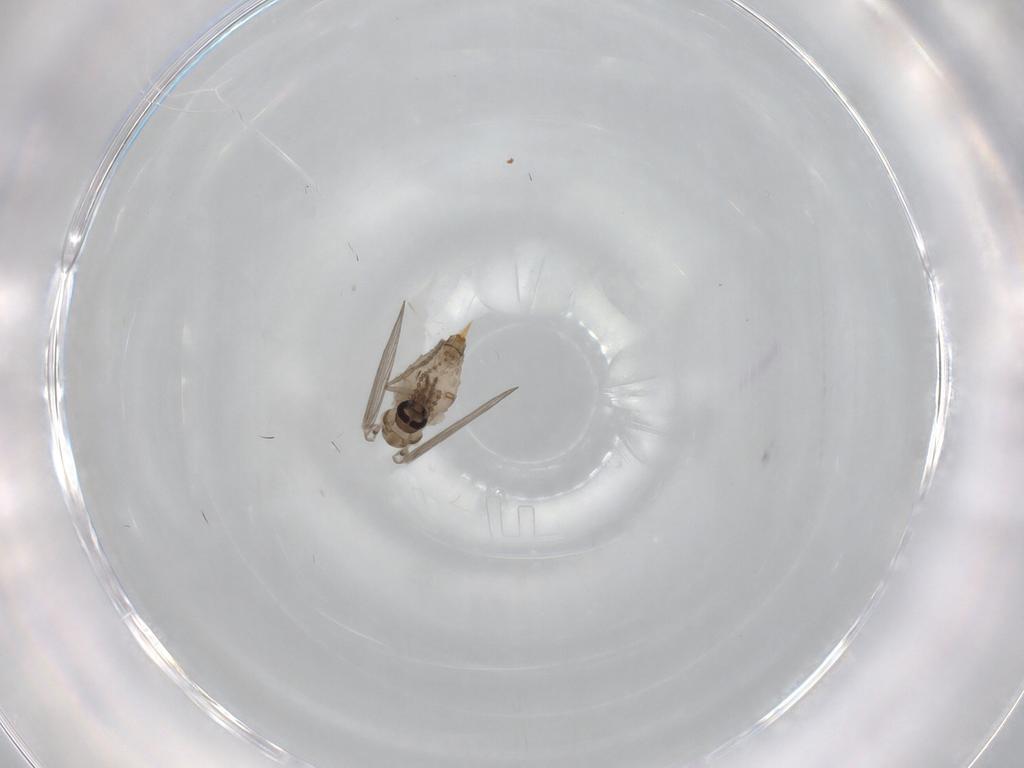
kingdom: Animalia
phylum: Arthropoda
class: Insecta
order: Diptera
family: Psychodidae
